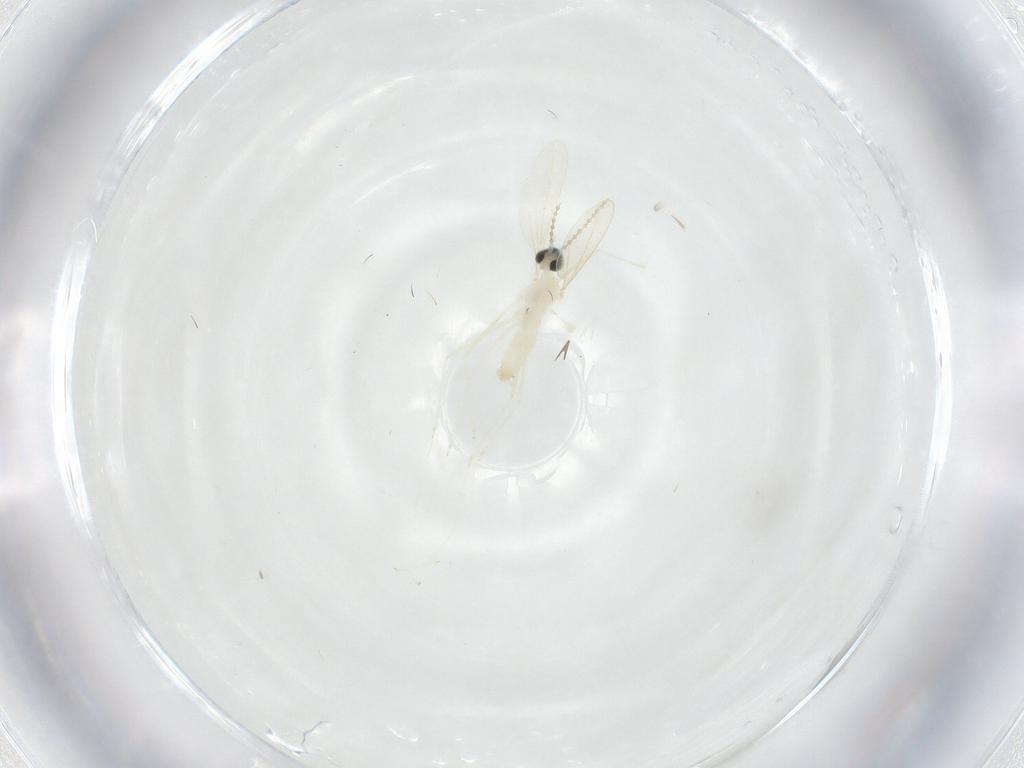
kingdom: Animalia
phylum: Arthropoda
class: Insecta
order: Diptera
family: Cecidomyiidae
